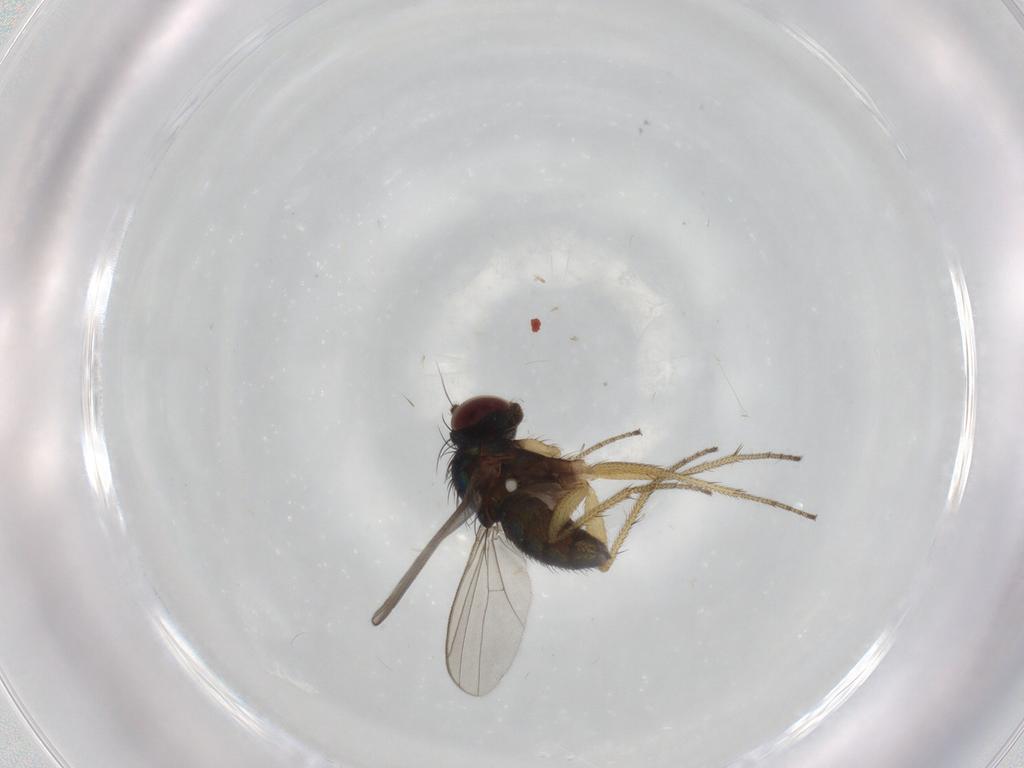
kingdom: Animalia
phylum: Arthropoda
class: Insecta
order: Diptera
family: Dolichopodidae
